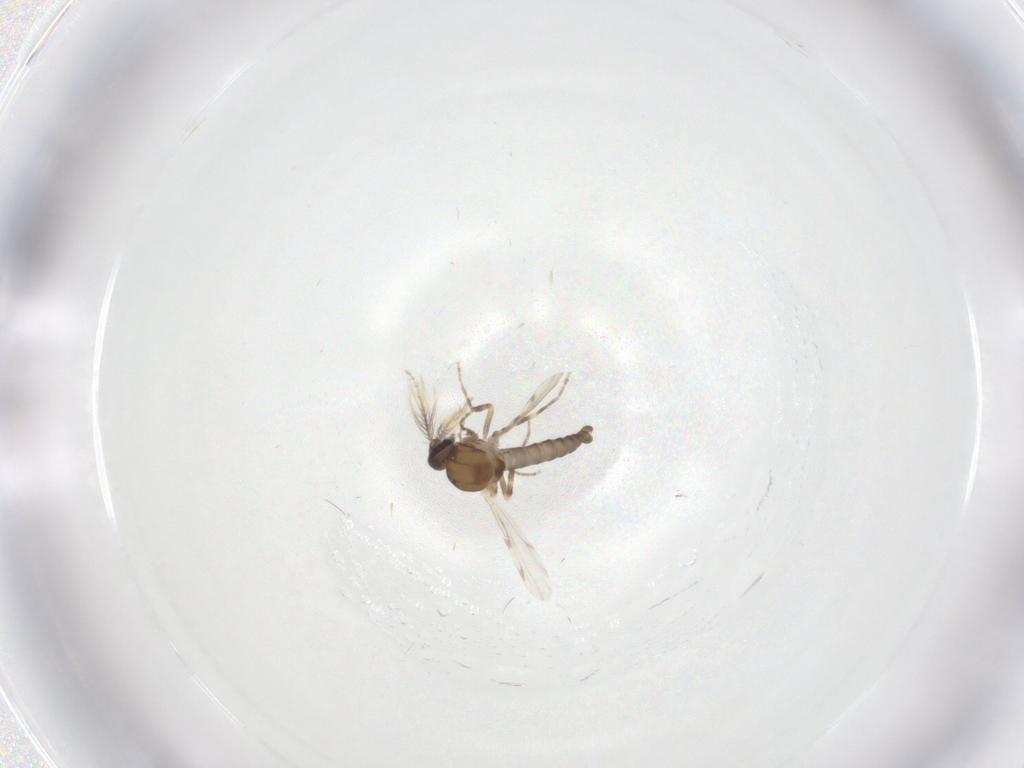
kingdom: Animalia
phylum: Arthropoda
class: Insecta
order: Diptera
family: Ceratopogonidae
